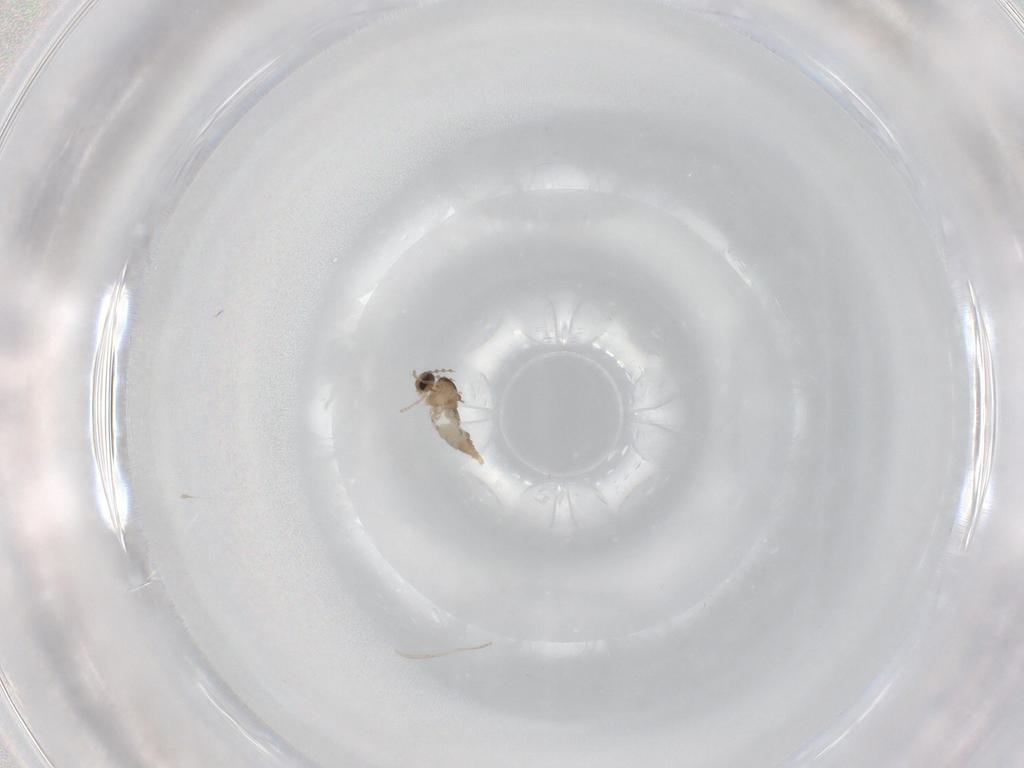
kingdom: Animalia
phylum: Arthropoda
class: Insecta
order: Diptera
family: Cecidomyiidae
